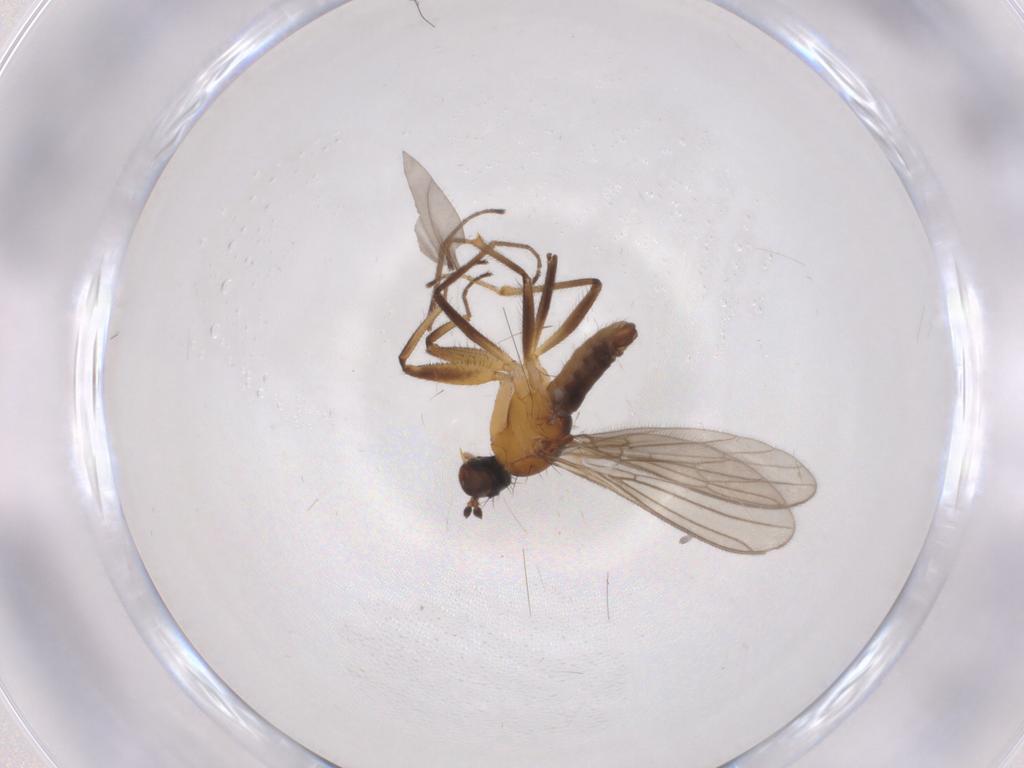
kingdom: Animalia
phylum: Arthropoda
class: Insecta
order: Diptera
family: Empididae
